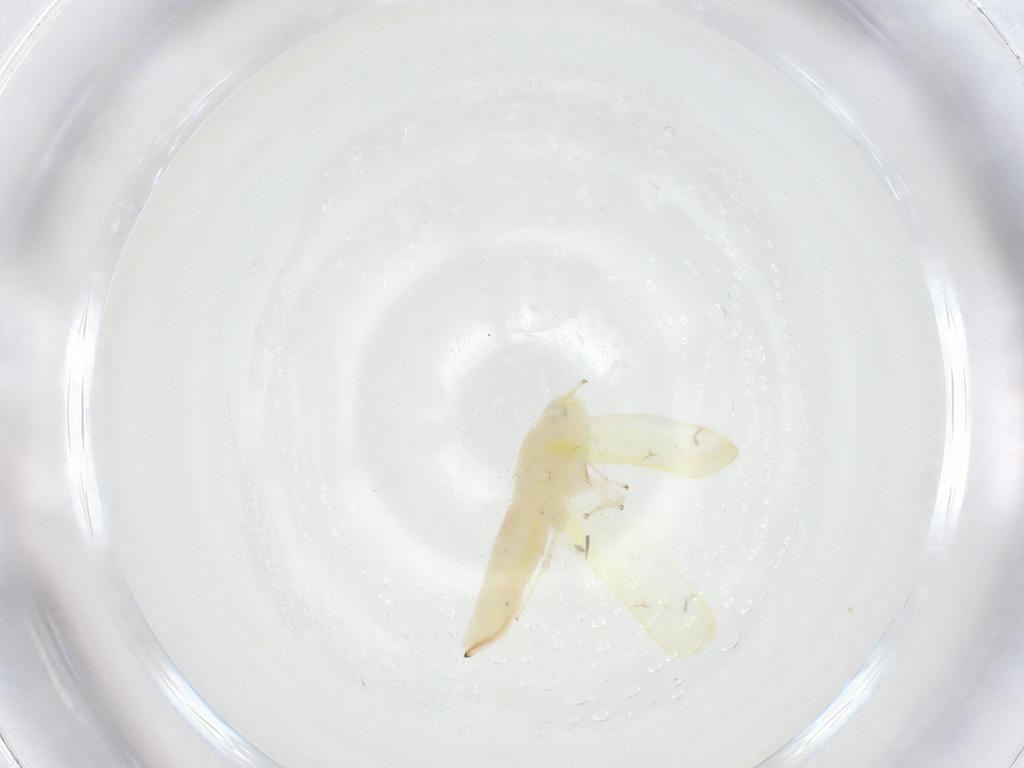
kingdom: Animalia
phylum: Arthropoda
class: Insecta
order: Hemiptera
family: Cicadellidae
